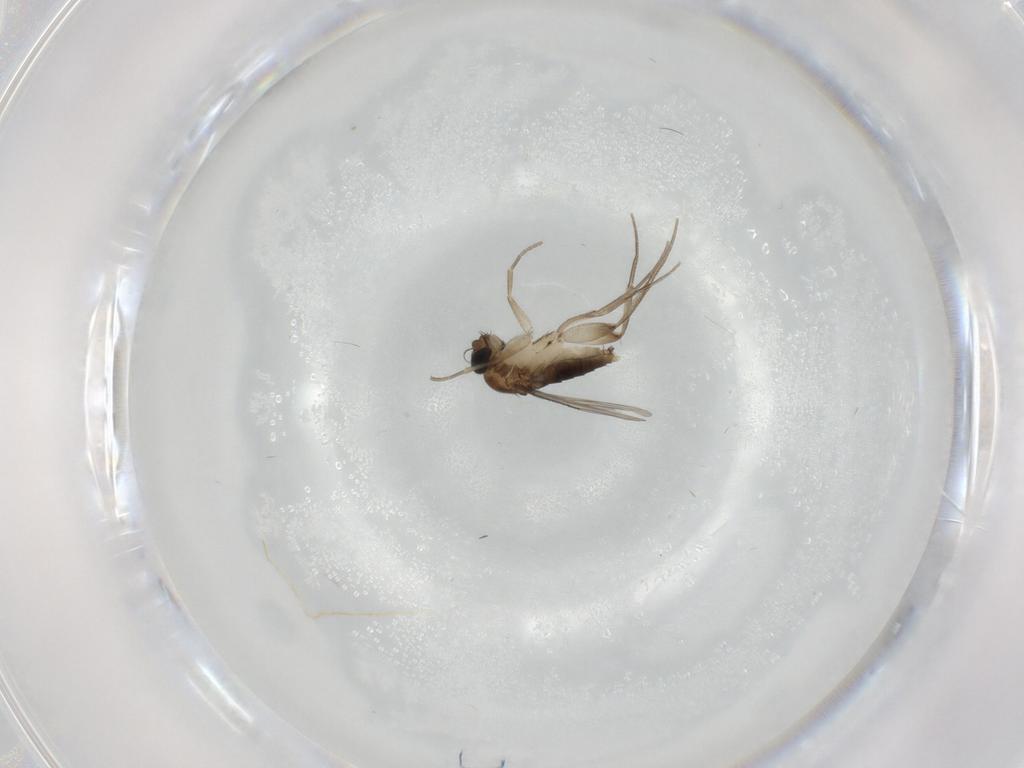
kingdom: Animalia
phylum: Arthropoda
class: Insecta
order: Diptera
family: Phoridae
